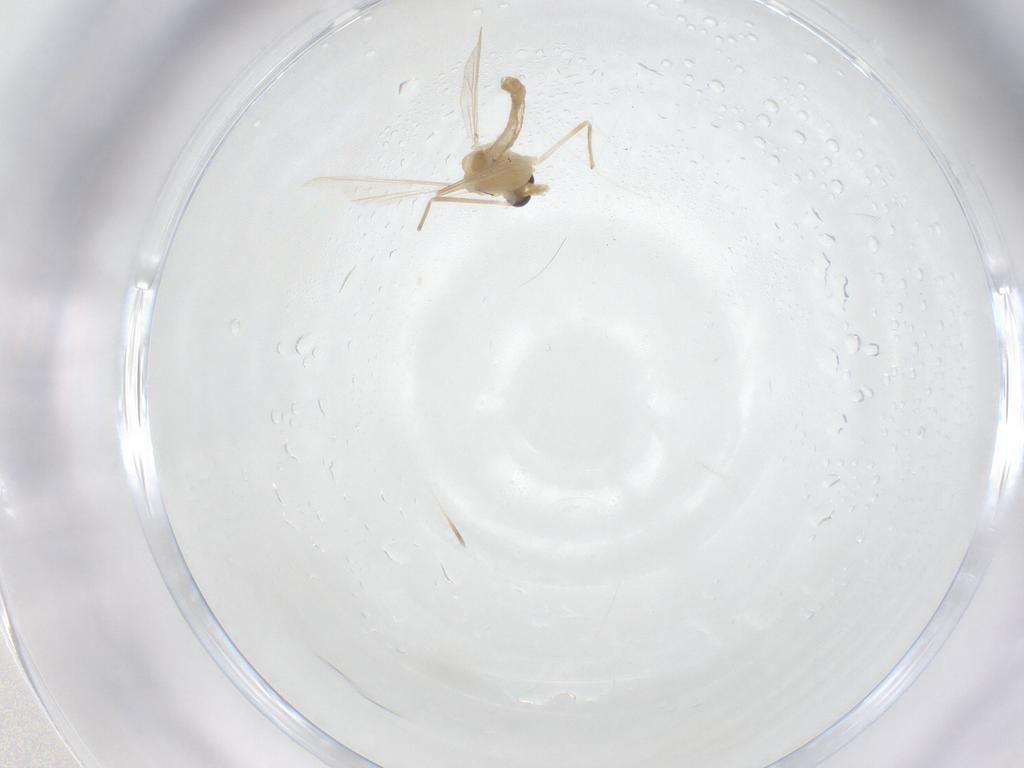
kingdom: Animalia
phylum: Arthropoda
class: Insecta
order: Diptera
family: Chironomidae
